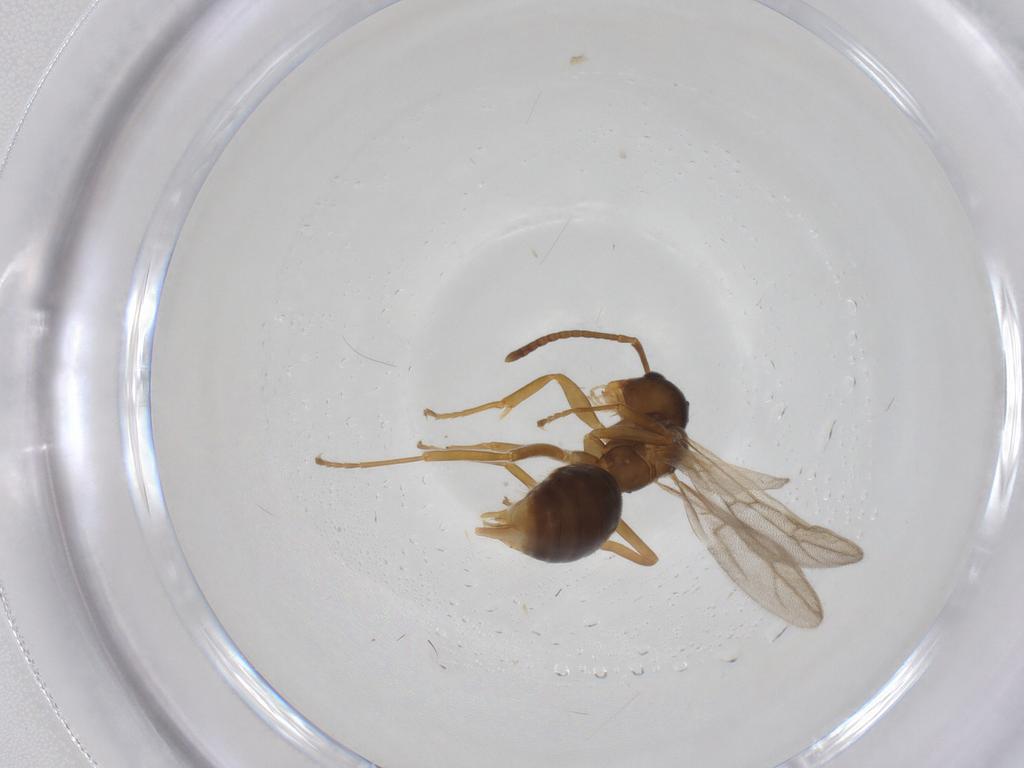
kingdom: Animalia
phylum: Arthropoda
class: Insecta
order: Hymenoptera
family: Formicidae
